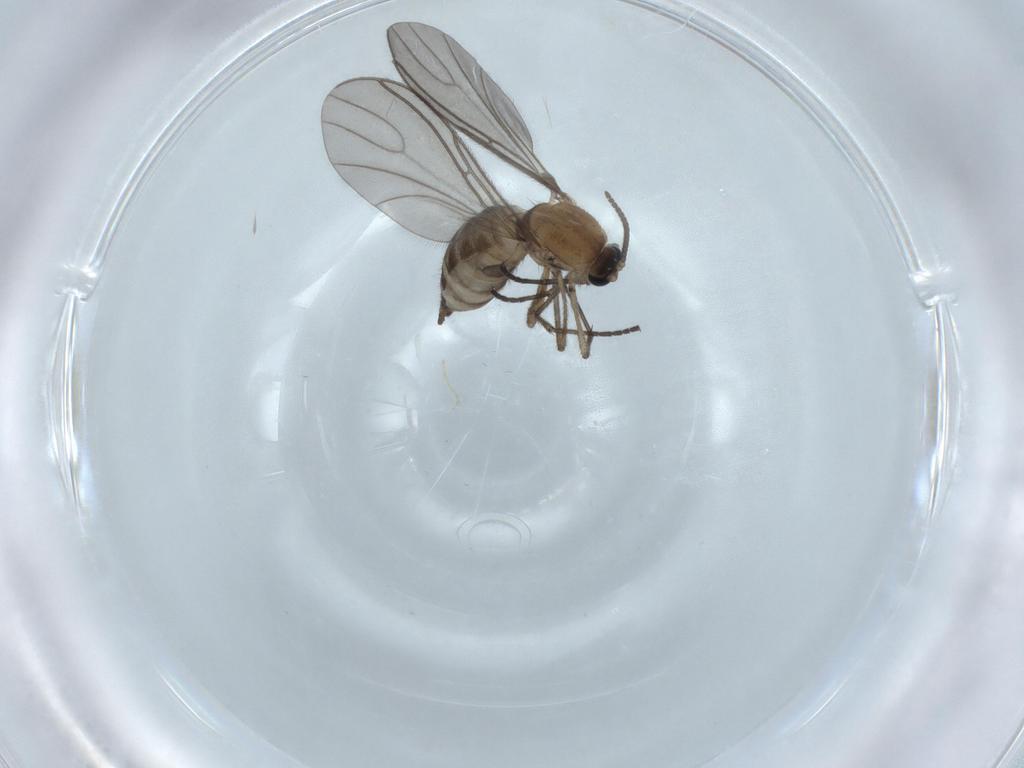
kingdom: Animalia
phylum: Arthropoda
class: Insecta
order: Diptera
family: Sciaridae
